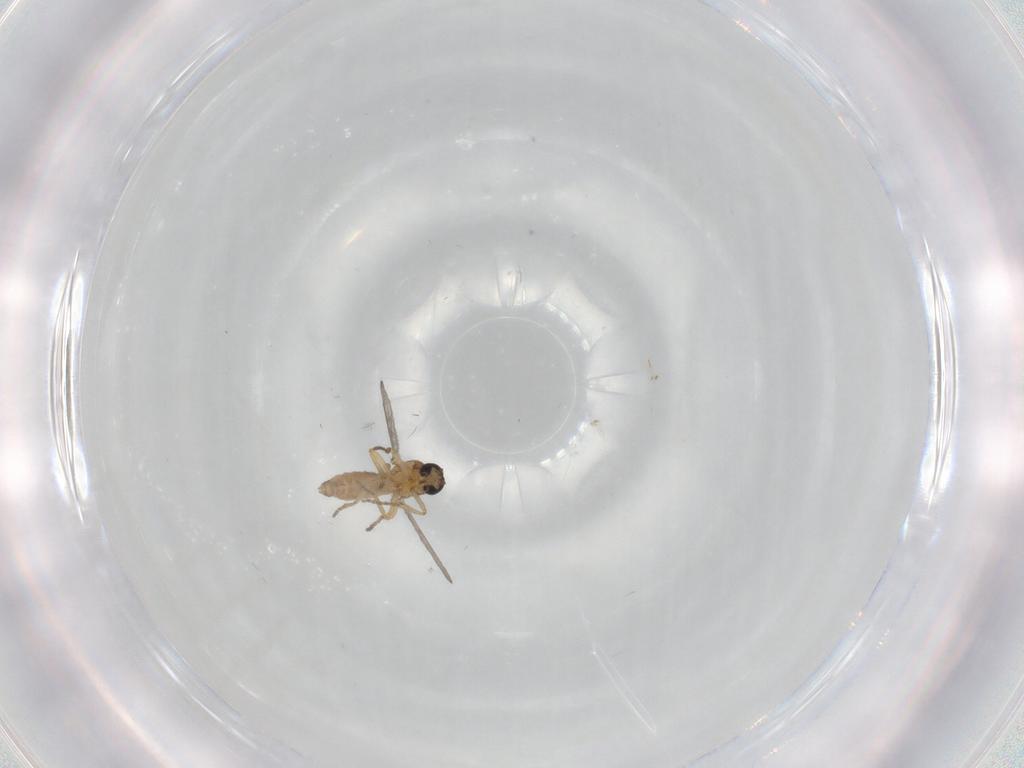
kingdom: Animalia
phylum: Arthropoda
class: Insecta
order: Diptera
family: Ceratopogonidae
